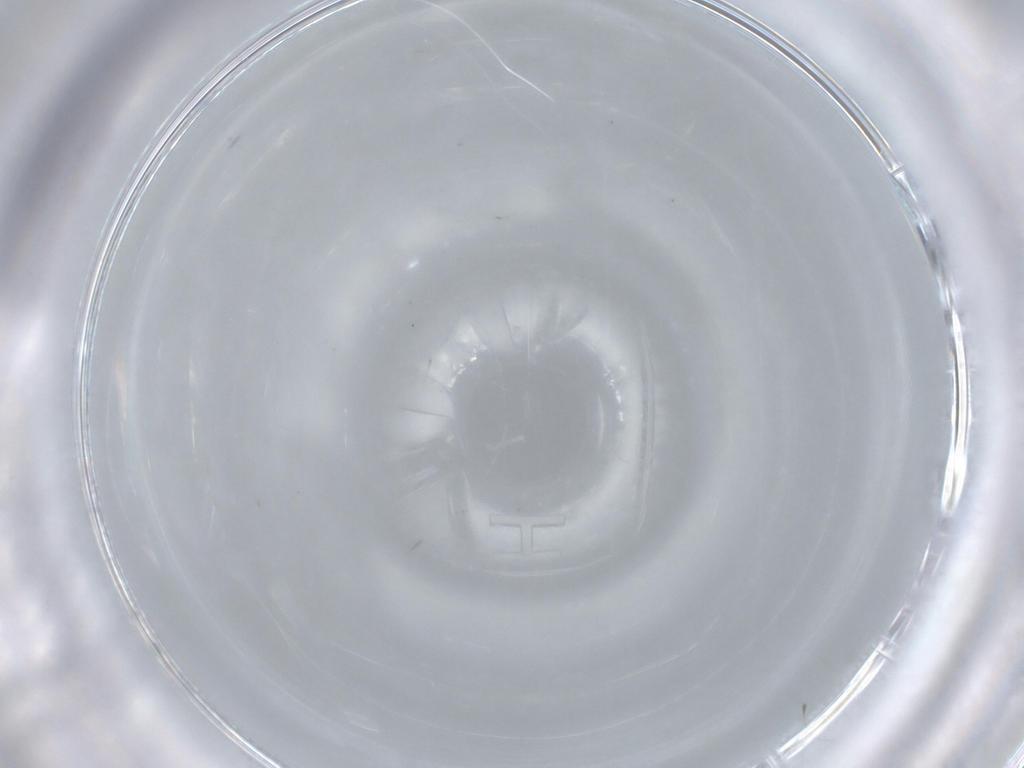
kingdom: Animalia
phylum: Arthropoda
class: Insecta
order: Diptera
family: Agromyzidae
